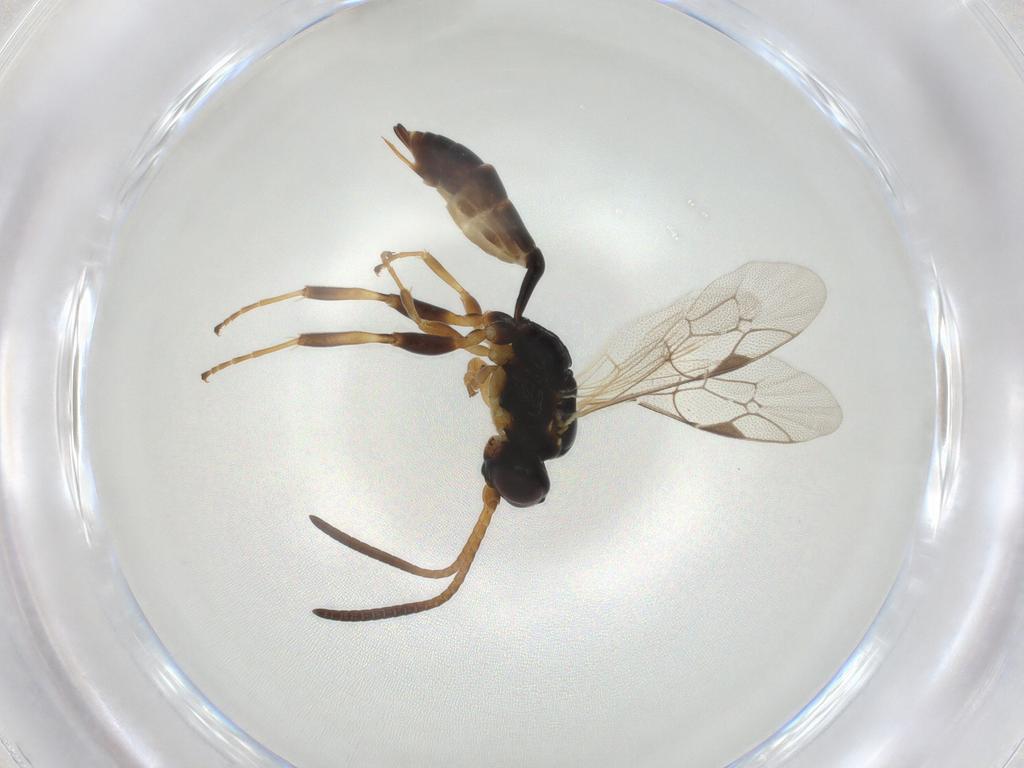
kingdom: Animalia
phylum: Arthropoda
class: Insecta
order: Hymenoptera
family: Ichneumonidae
